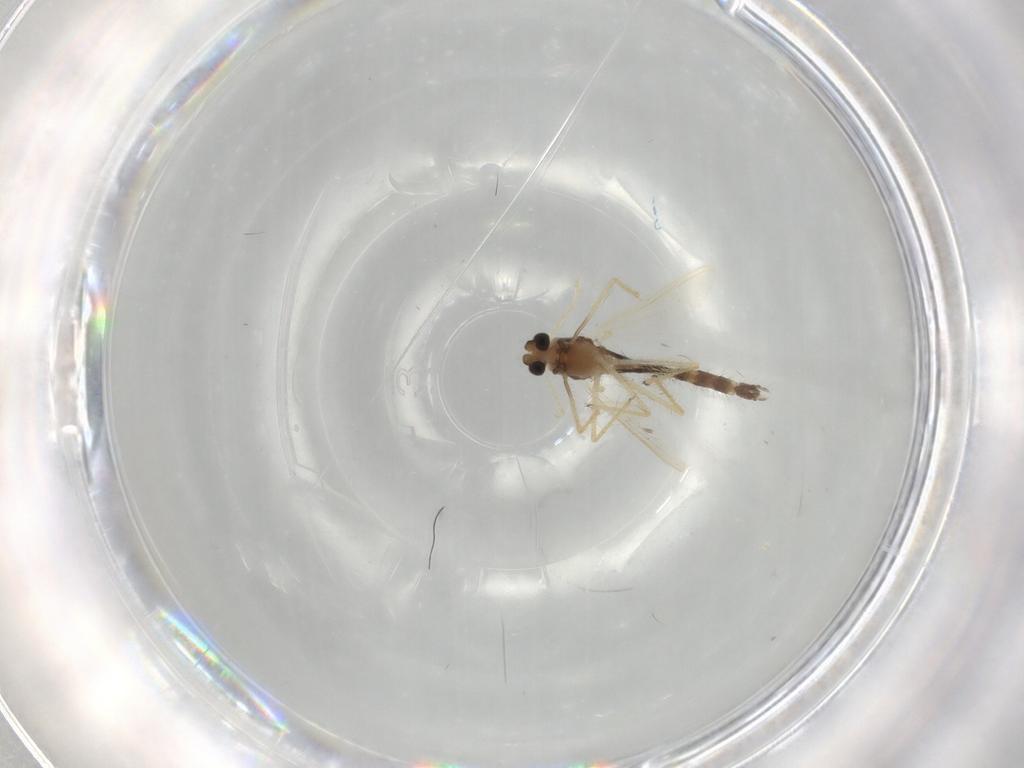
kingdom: Animalia
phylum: Arthropoda
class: Insecta
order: Diptera
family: Chironomidae
